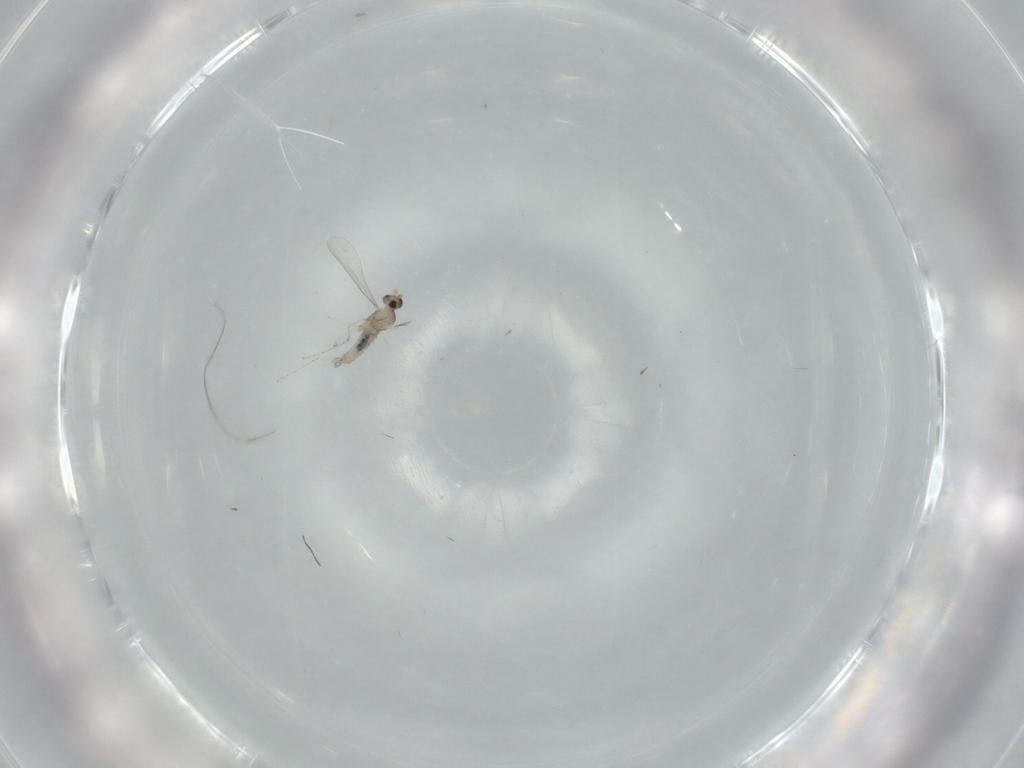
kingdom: Animalia
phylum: Arthropoda
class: Insecta
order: Diptera
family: Cecidomyiidae
